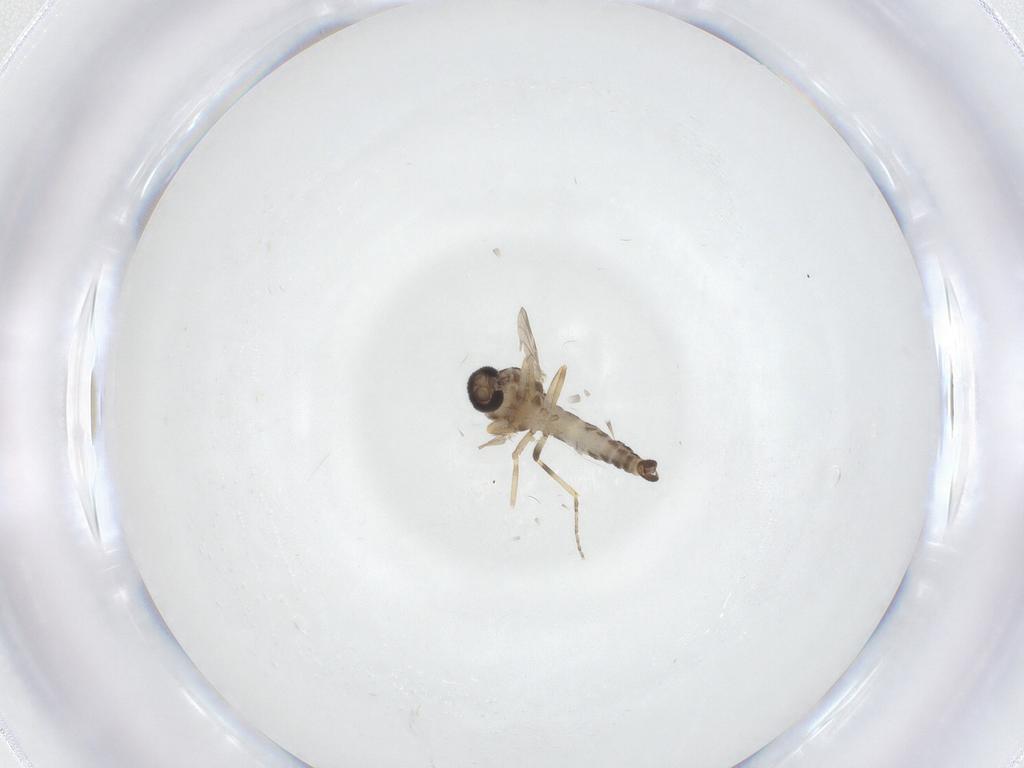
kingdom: Animalia
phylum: Arthropoda
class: Insecta
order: Diptera
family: Ceratopogonidae
